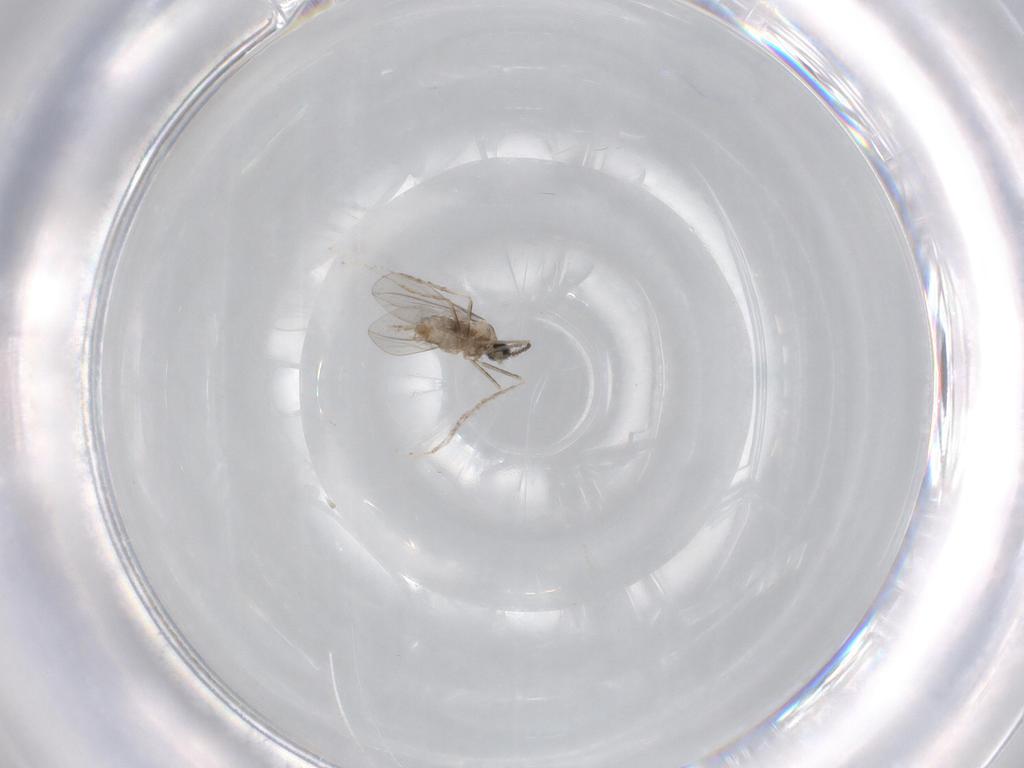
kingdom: Animalia
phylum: Arthropoda
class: Insecta
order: Diptera
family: Cecidomyiidae
